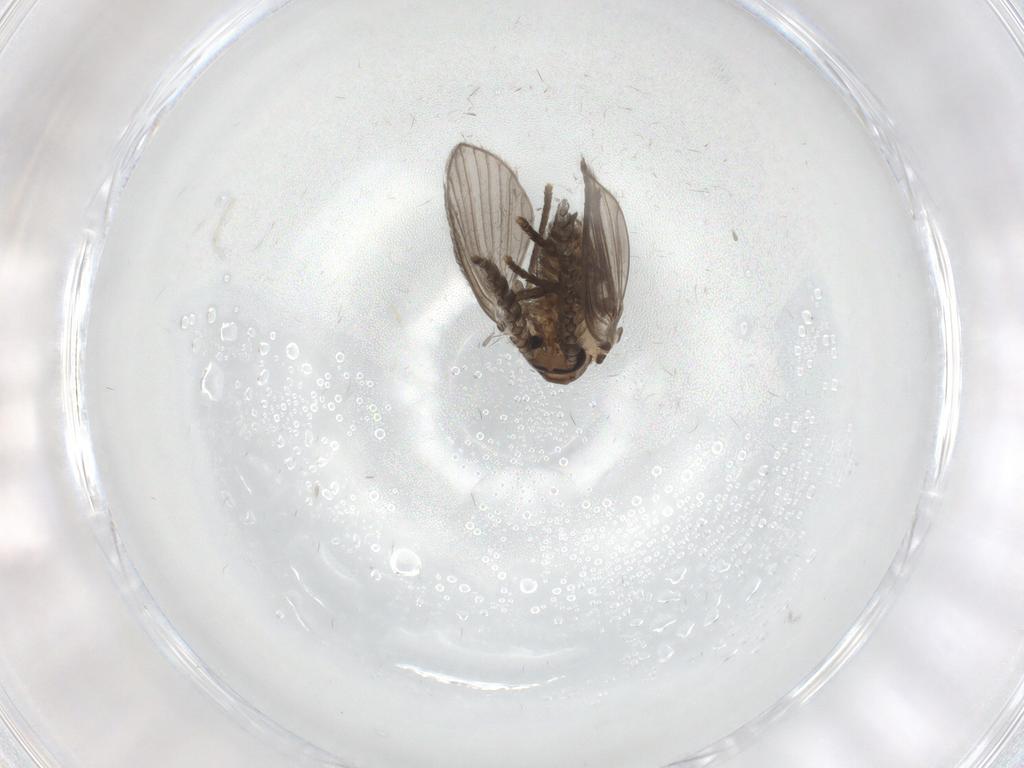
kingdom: Animalia
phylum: Arthropoda
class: Insecta
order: Diptera
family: Psychodidae
